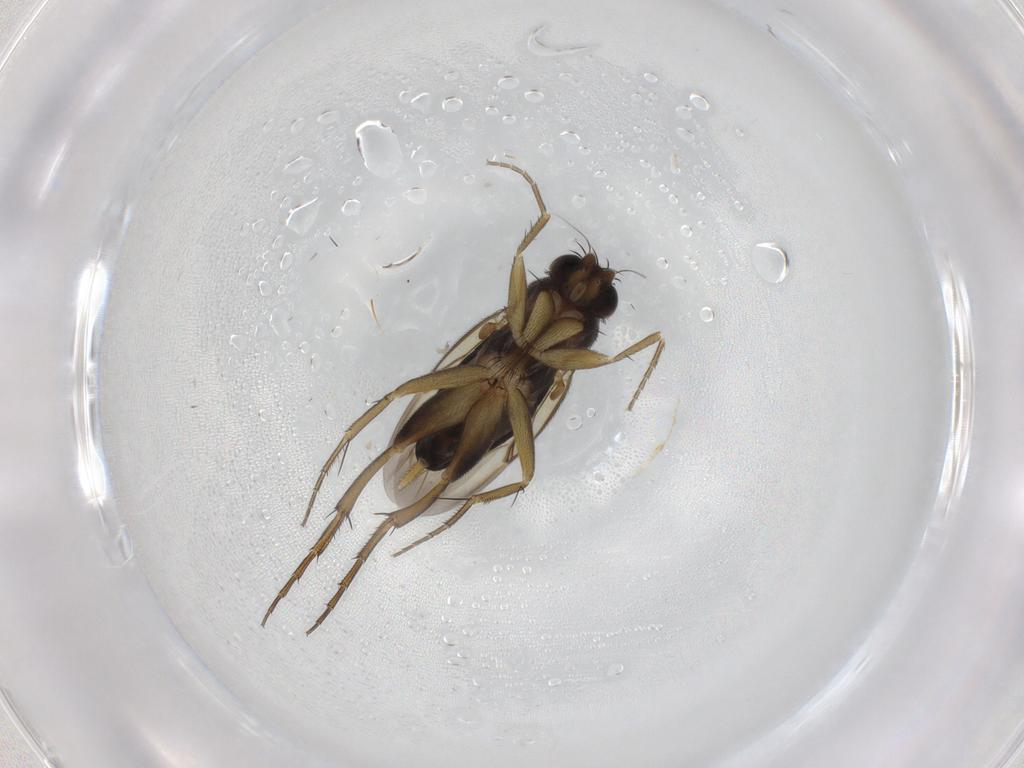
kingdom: Animalia
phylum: Arthropoda
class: Insecta
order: Diptera
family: Phoridae
